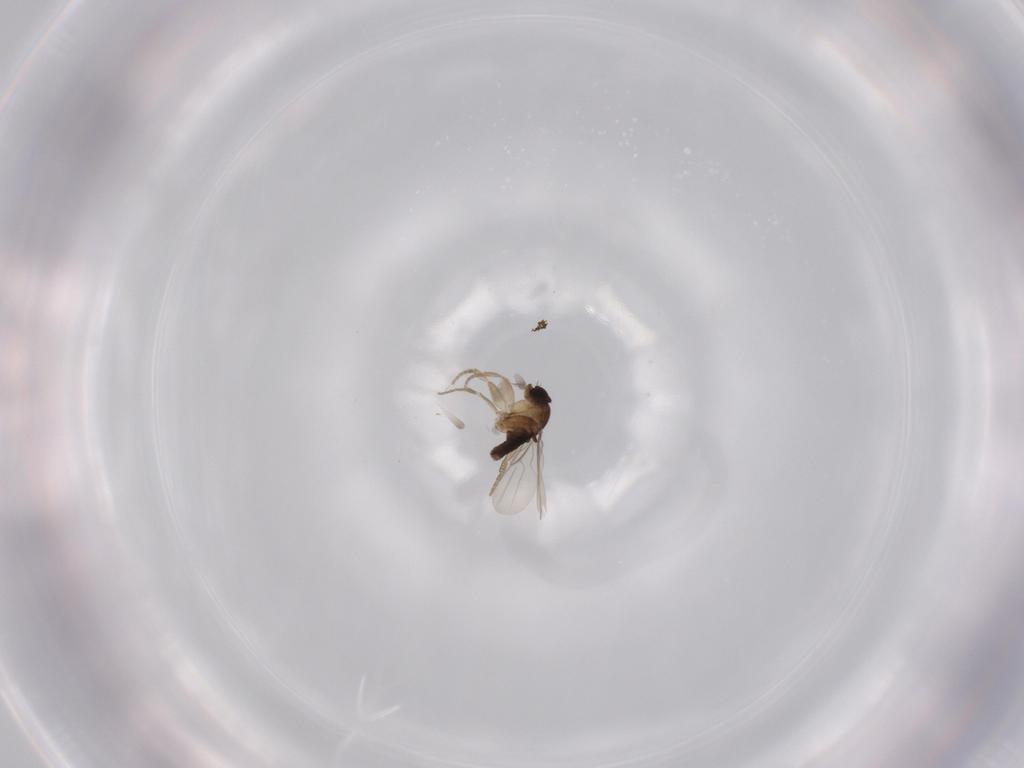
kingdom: Animalia
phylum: Arthropoda
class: Insecta
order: Diptera
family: Phoridae
